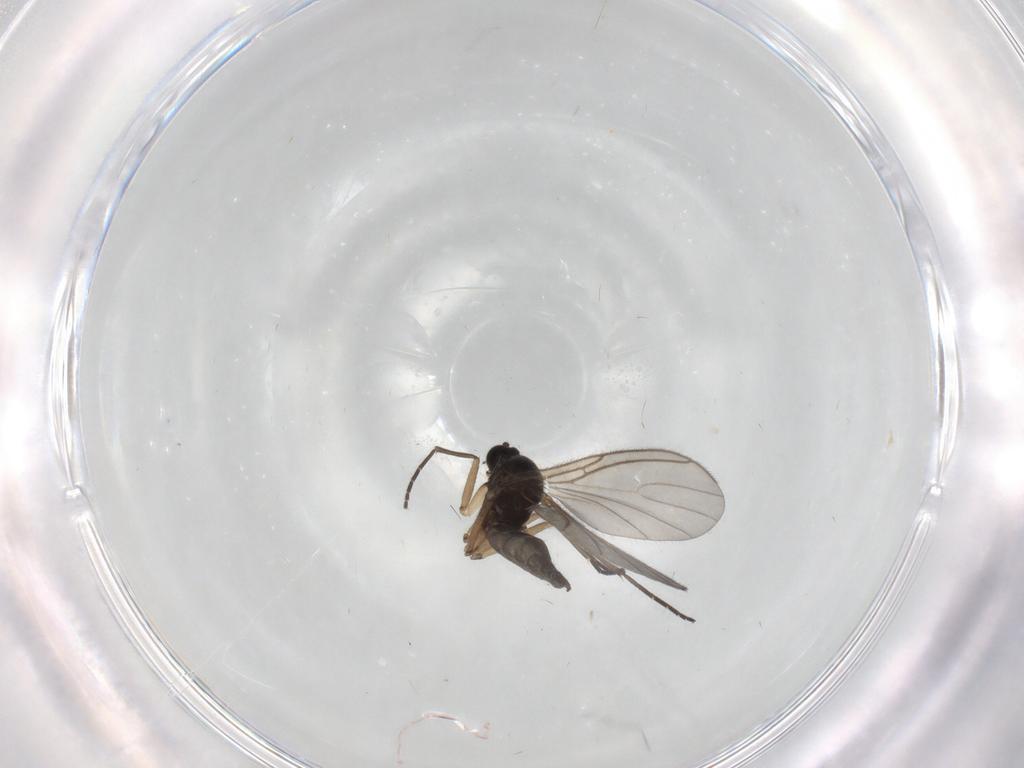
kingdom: Animalia
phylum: Arthropoda
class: Insecta
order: Diptera
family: Sciaridae
